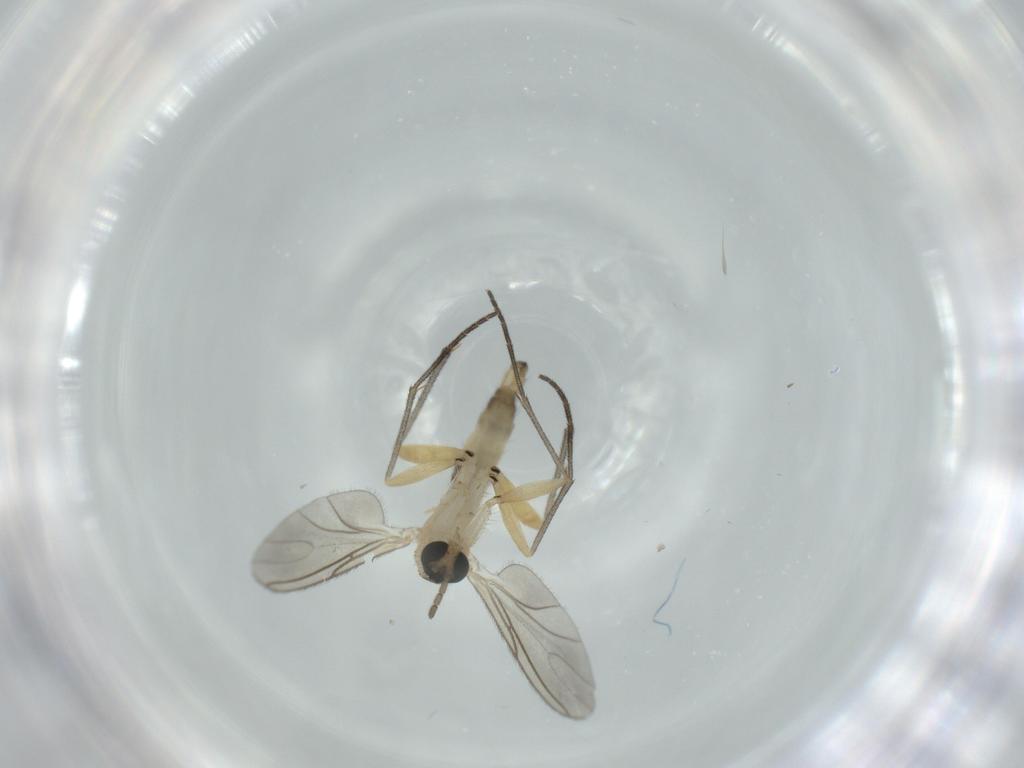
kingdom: Animalia
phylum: Arthropoda
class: Insecta
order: Diptera
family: Sciaridae
